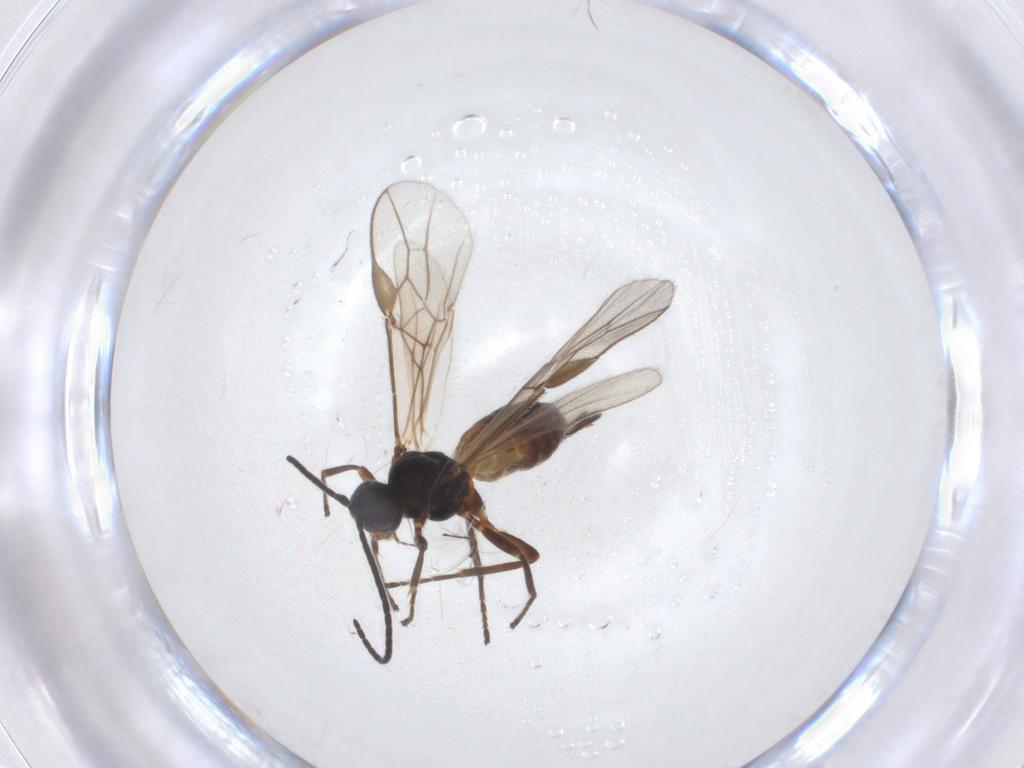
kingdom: Animalia
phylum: Arthropoda
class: Insecta
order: Hymenoptera
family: Braconidae
